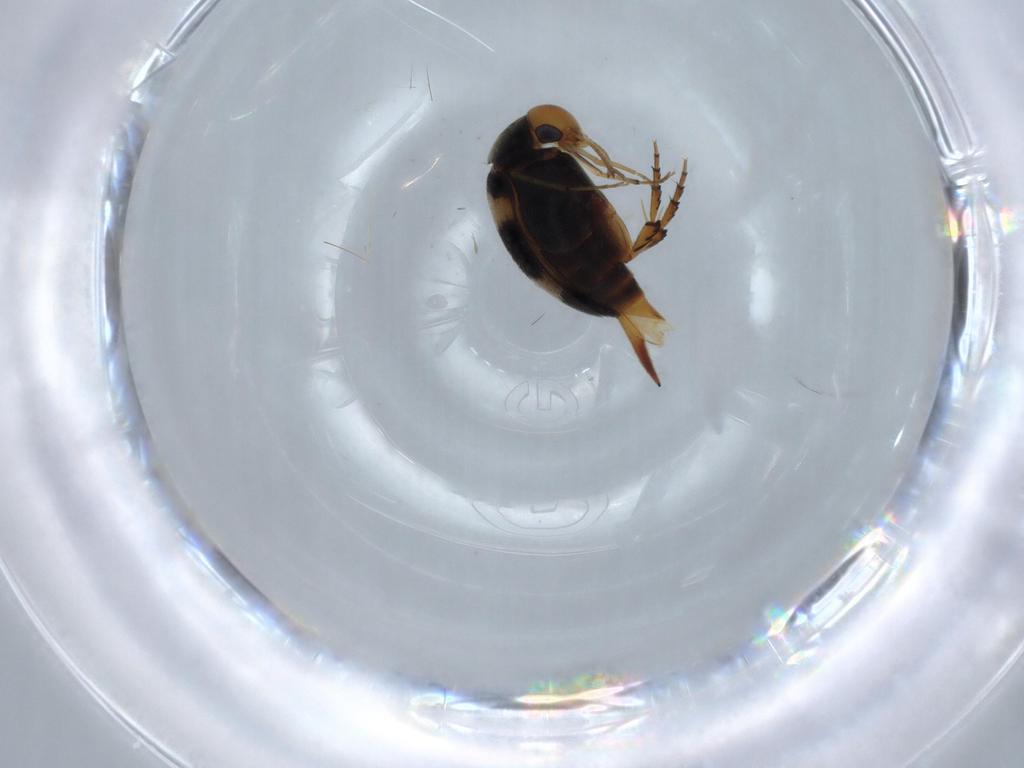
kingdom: Animalia
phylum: Arthropoda
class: Insecta
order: Coleoptera
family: Mordellidae
